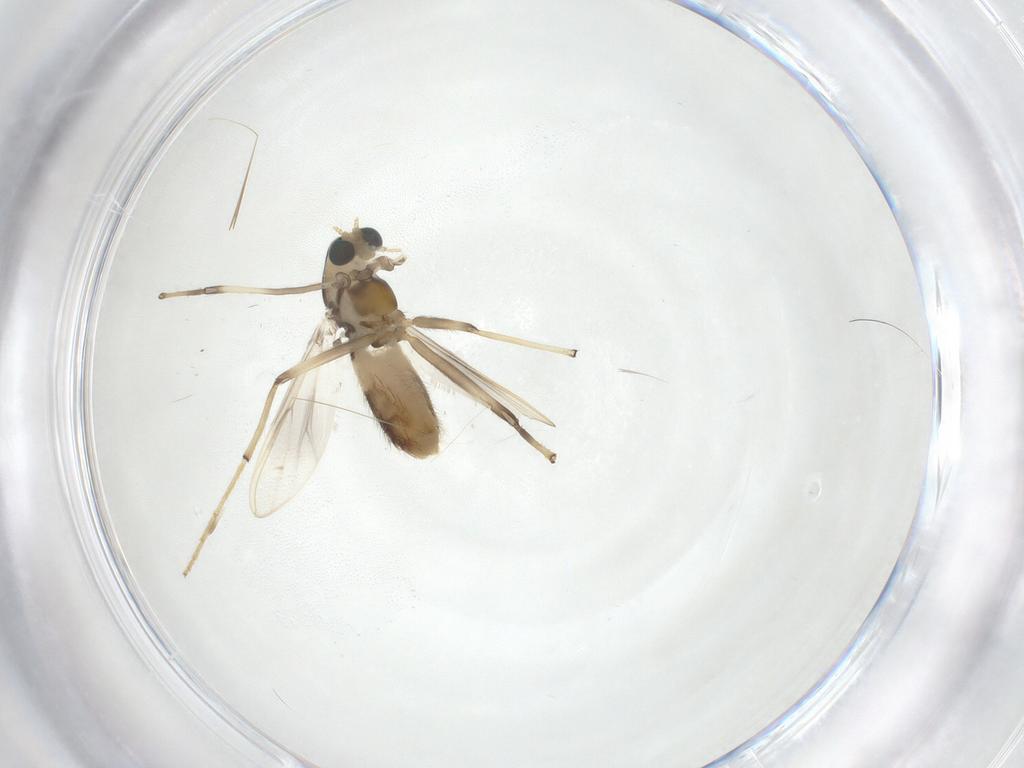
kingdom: Animalia
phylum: Arthropoda
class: Insecta
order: Diptera
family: Chironomidae
